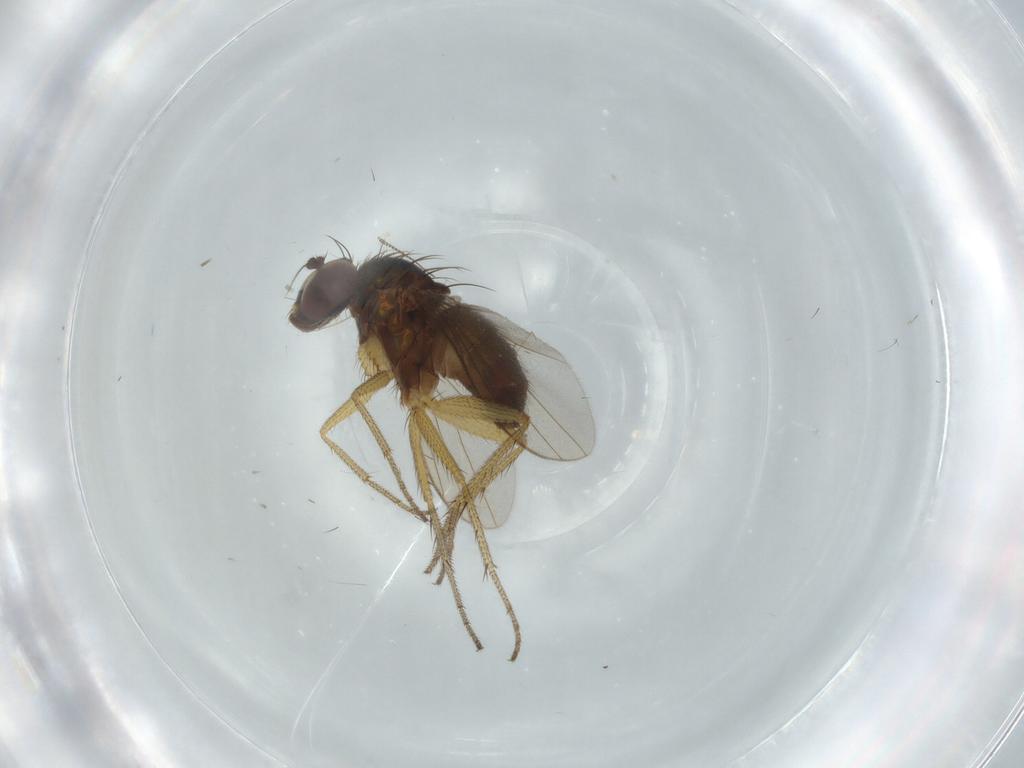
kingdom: Animalia
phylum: Arthropoda
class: Insecta
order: Diptera
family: Dolichopodidae
